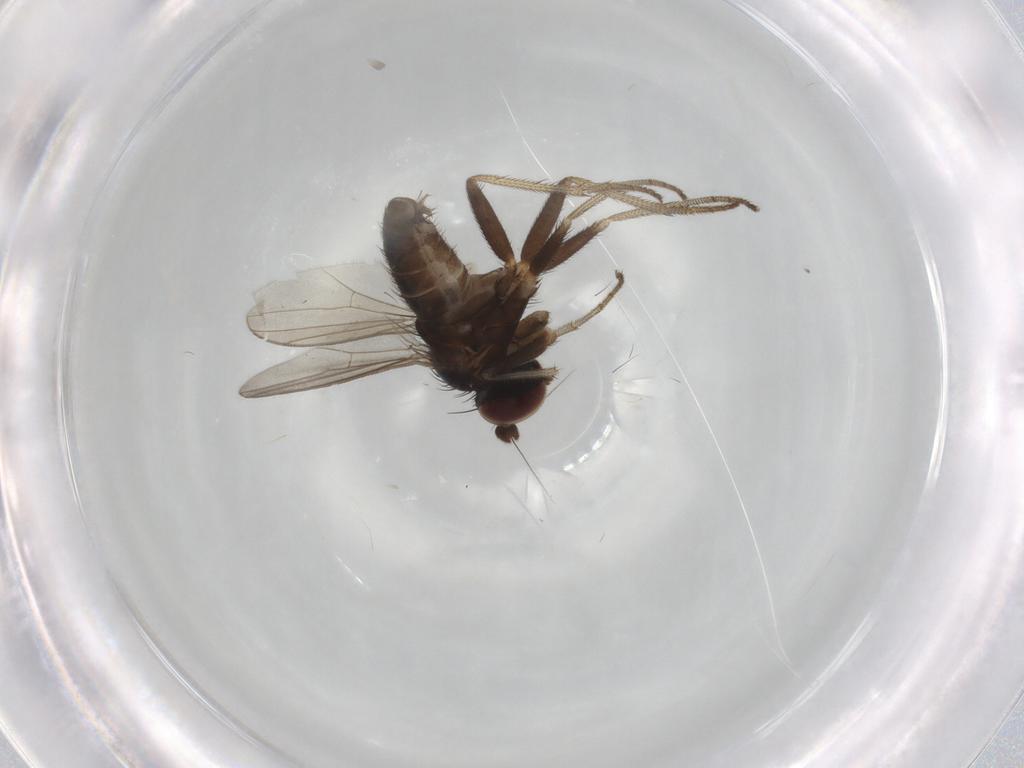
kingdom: Animalia
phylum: Arthropoda
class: Insecta
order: Diptera
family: Dolichopodidae
